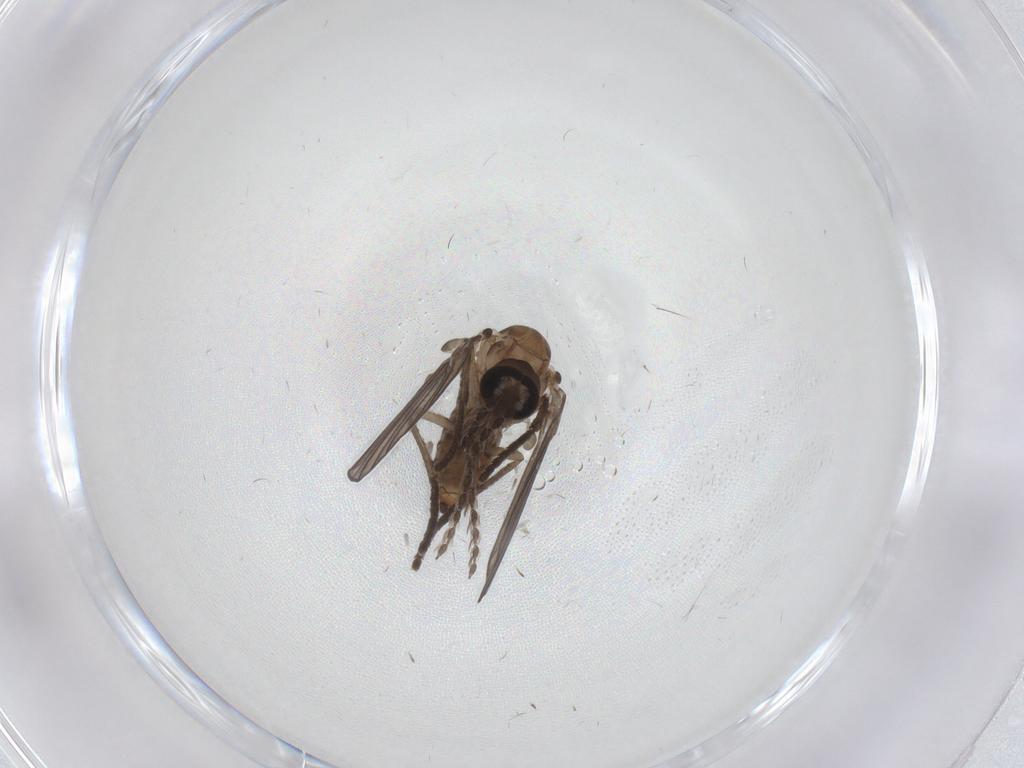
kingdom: Animalia
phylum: Arthropoda
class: Insecta
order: Diptera
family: Psychodidae
